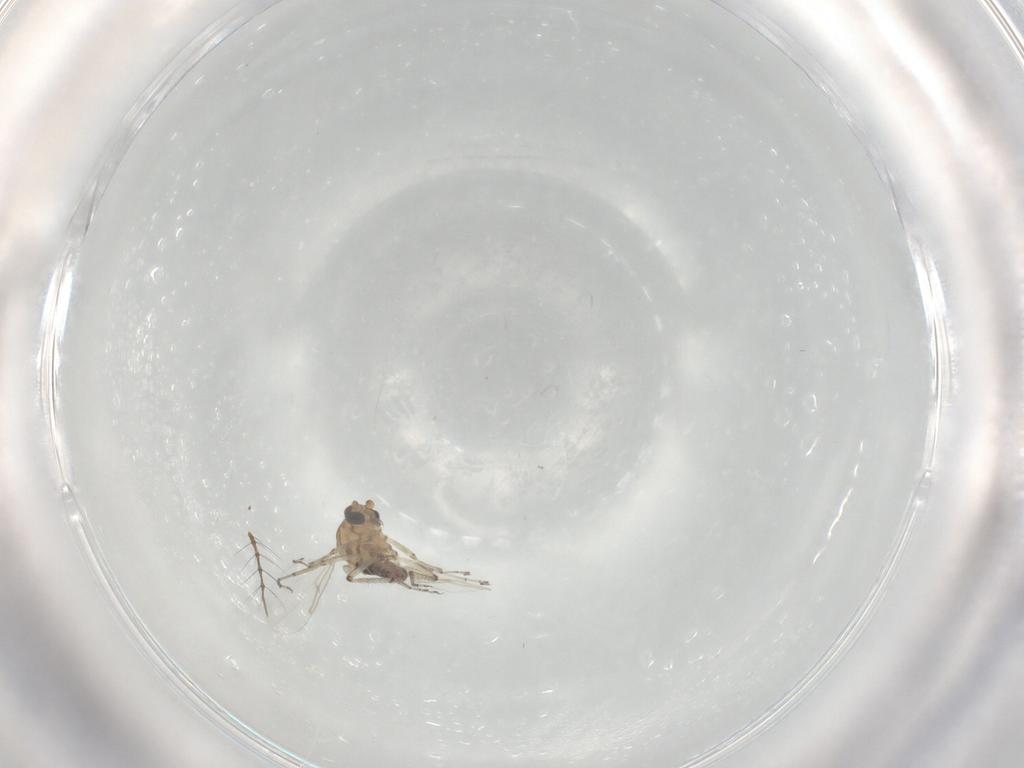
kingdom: Animalia
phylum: Arthropoda
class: Insecta
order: Diptera
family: Ceratopogonidae
